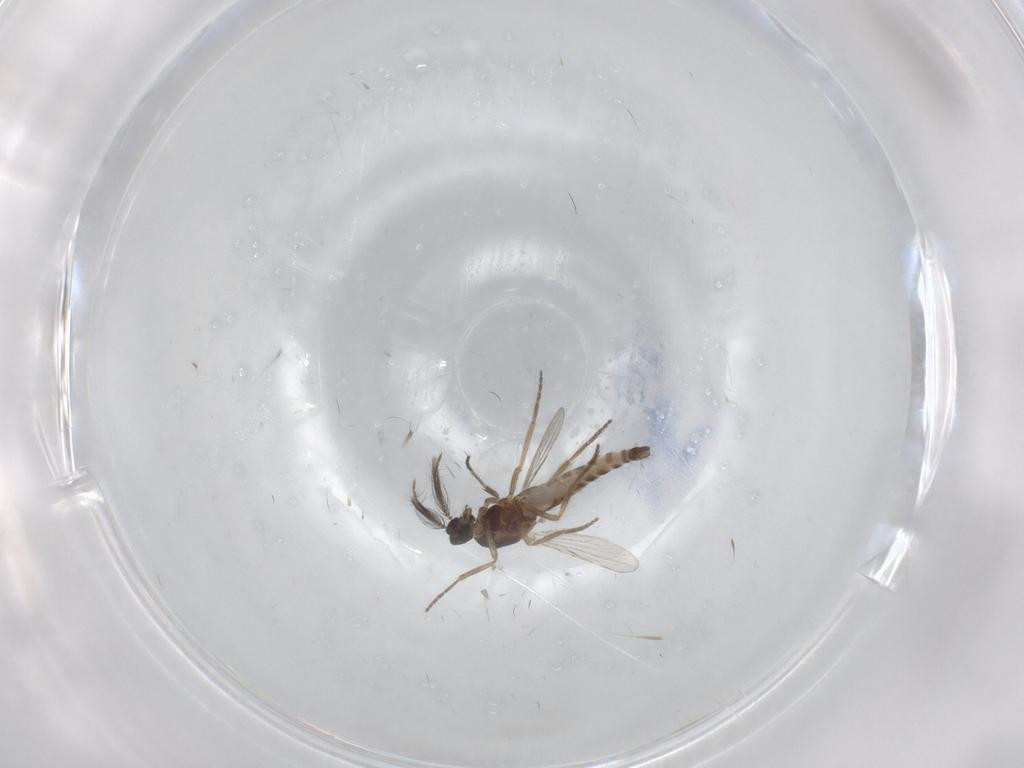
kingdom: Animalia
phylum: Arthropoda
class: Insecta
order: Diptera
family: Ceratopogonidae
